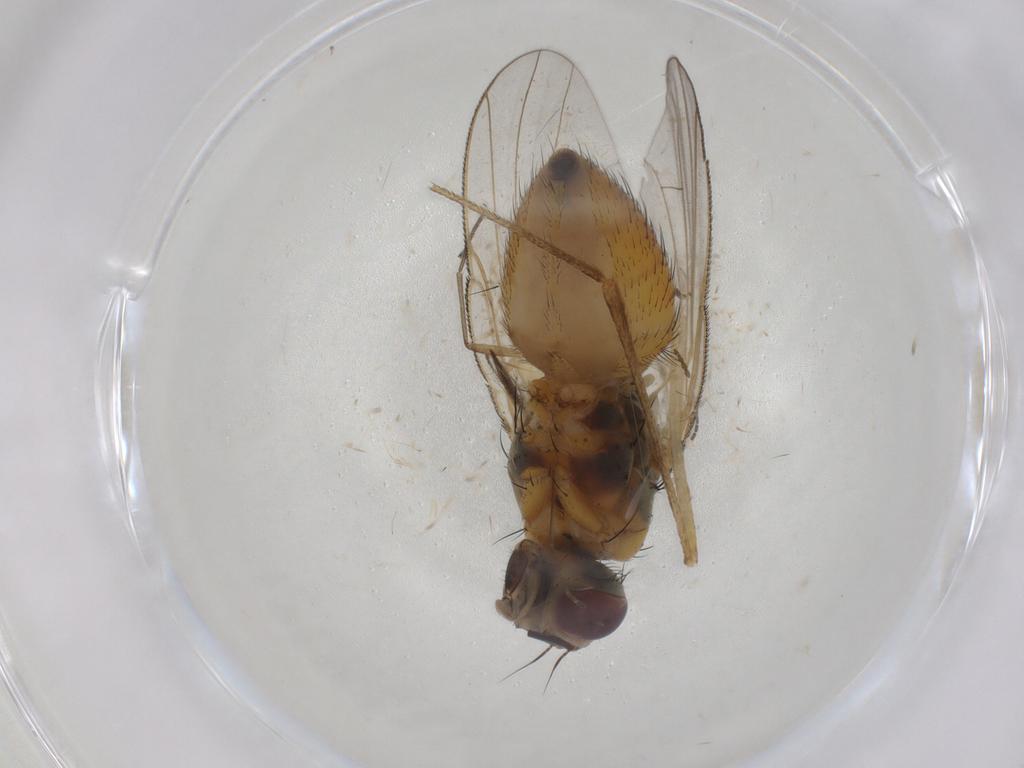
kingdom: Animalia
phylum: Arthropoda
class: Insecta
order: Diptera
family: Muscidae
